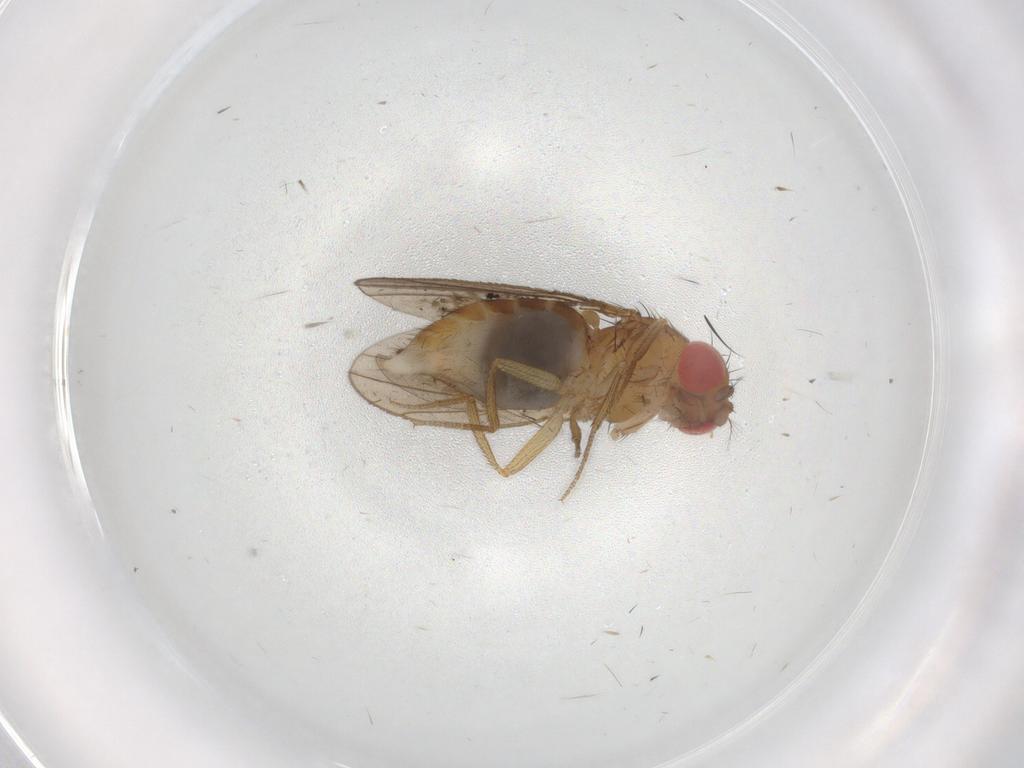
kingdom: Animalia
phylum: Arthropoda
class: Insecta
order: Diptera
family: Drosophilidae
